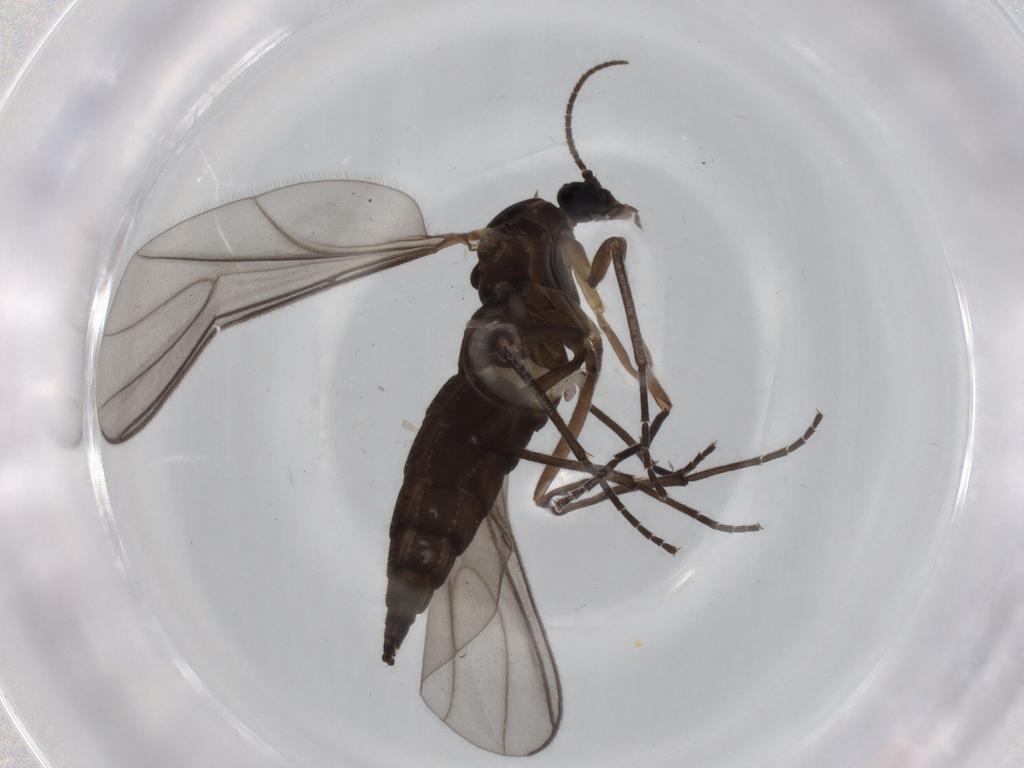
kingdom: Animalia
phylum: Arthropoda
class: Insecta
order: Diptera
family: Sciaridae
